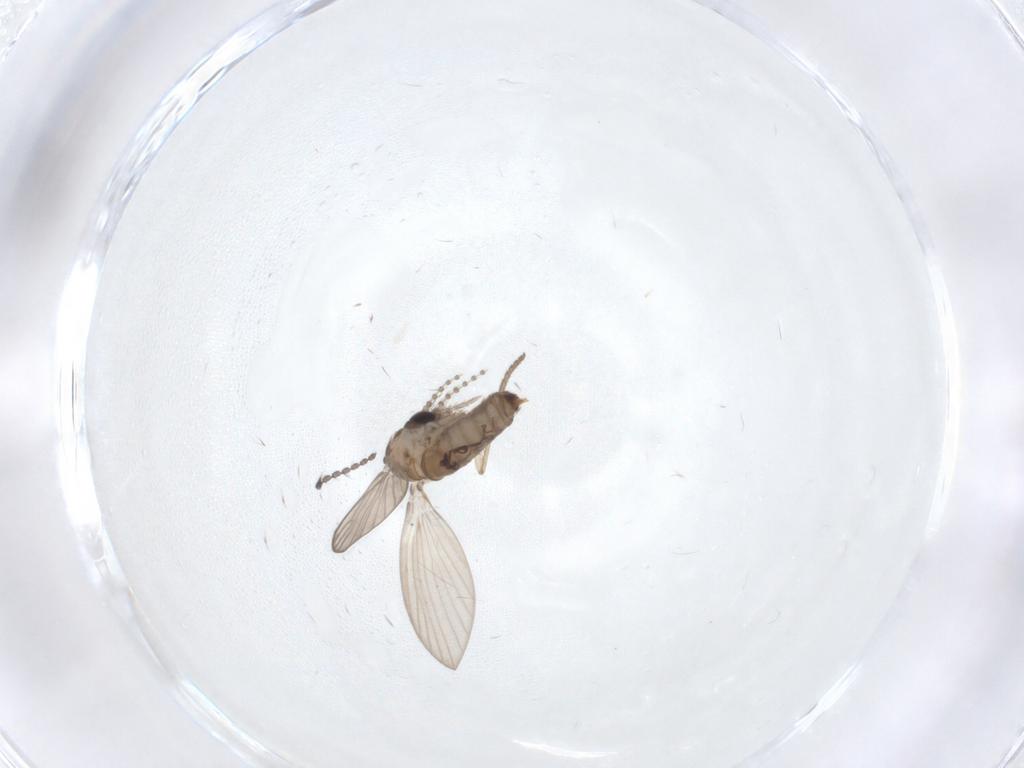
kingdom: Animalia
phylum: Arthropoda
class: Insecta
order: Diptera
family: Psychodidae
